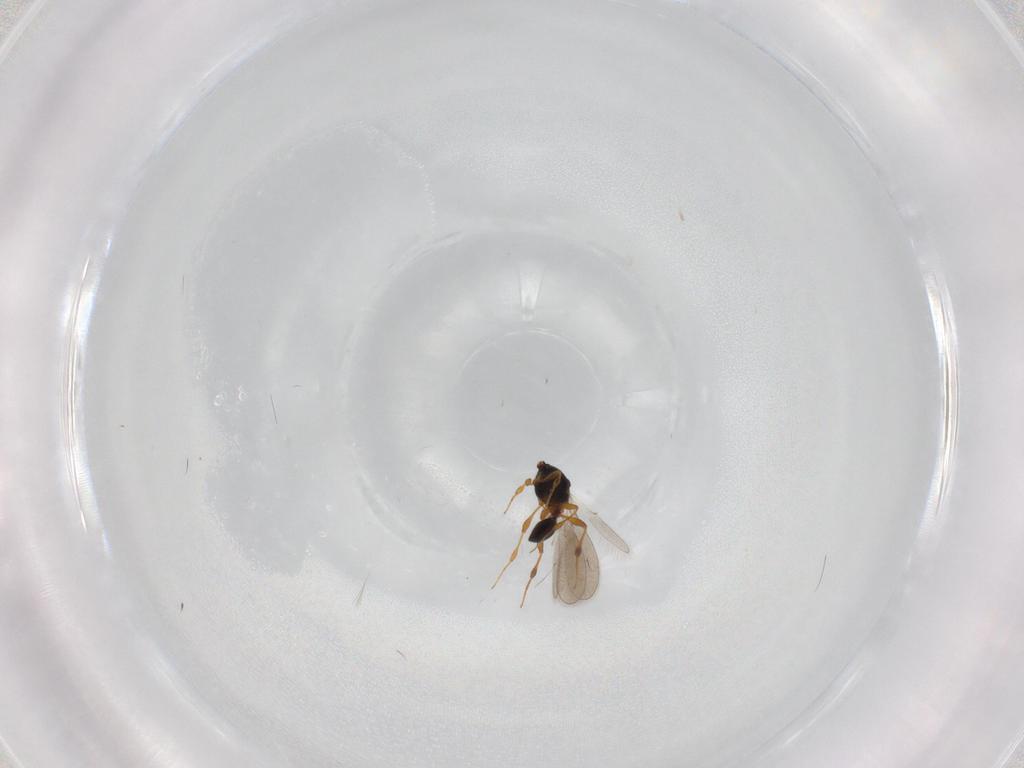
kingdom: Animalia
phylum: Arthropoda
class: Insecta
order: Hymenoptera
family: Platygastridae
